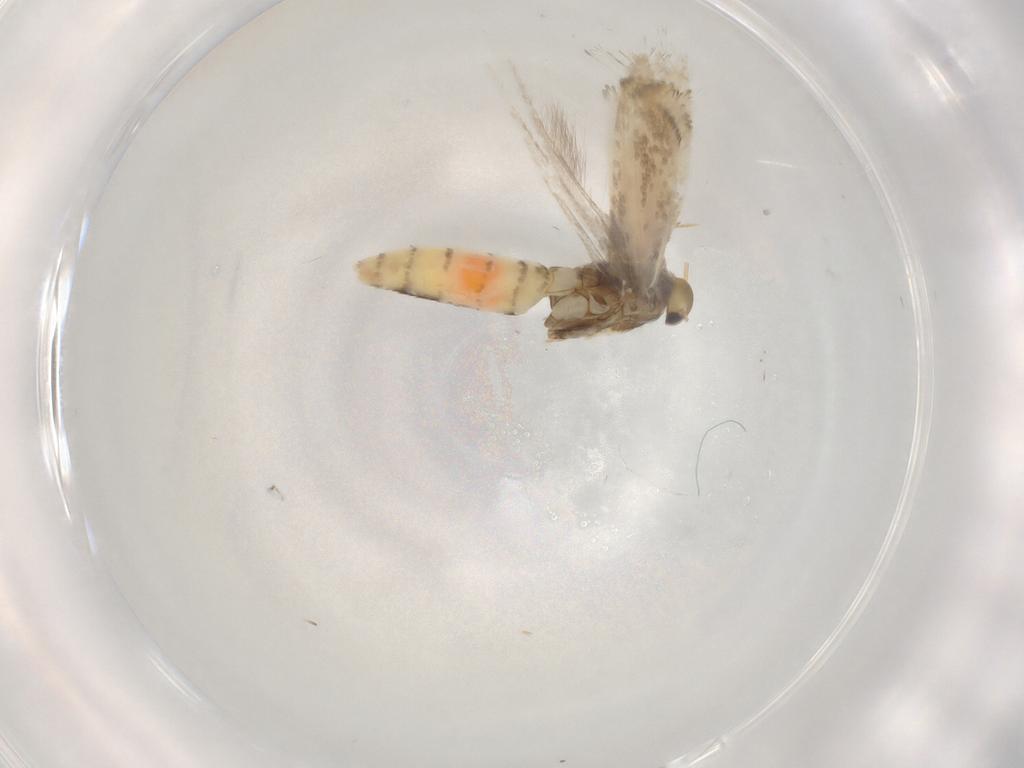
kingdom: Animalia
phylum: Arthropoda
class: Insecta
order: Lepidoptera
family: Gracillariidae
